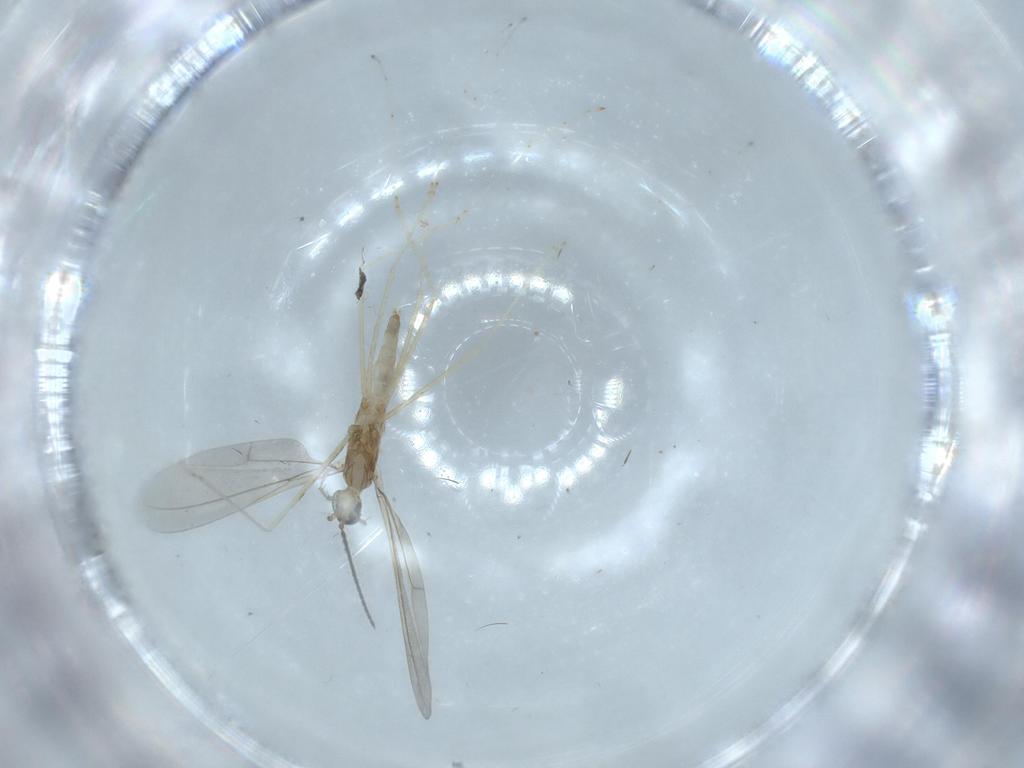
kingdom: Animalia
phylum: Arthropoda
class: Insecta
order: Diptera
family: Cecidomyiidae
